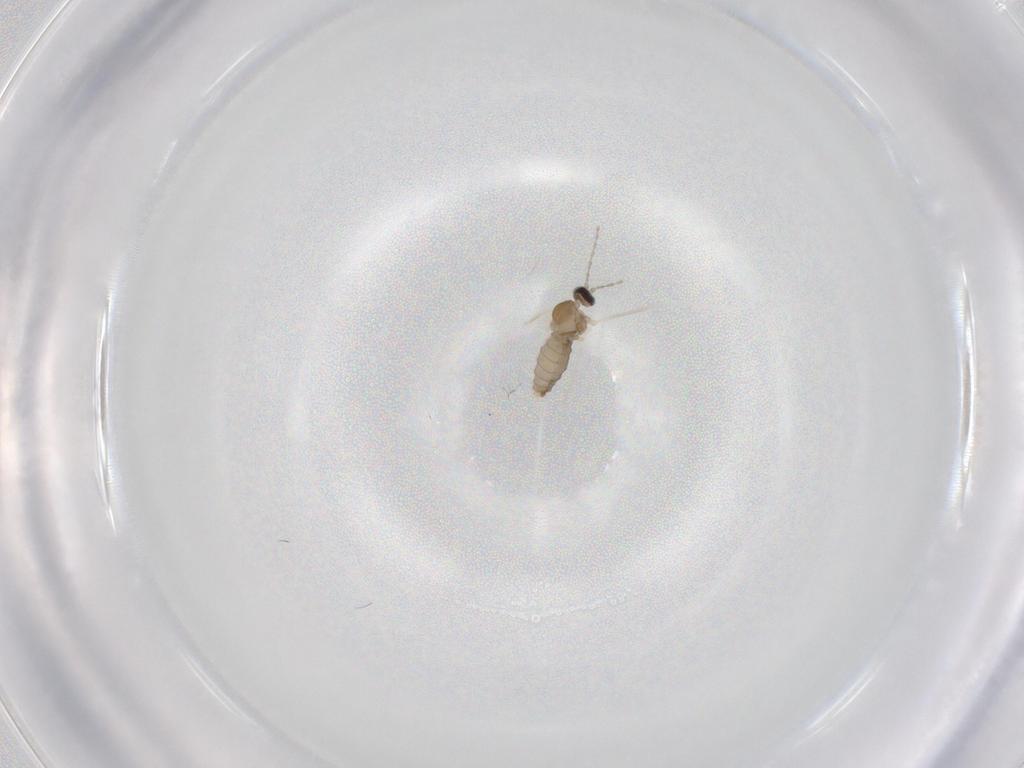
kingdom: Animalia
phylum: Arthropoda
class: Insecta
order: Diptera
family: Cecidomyiidae
